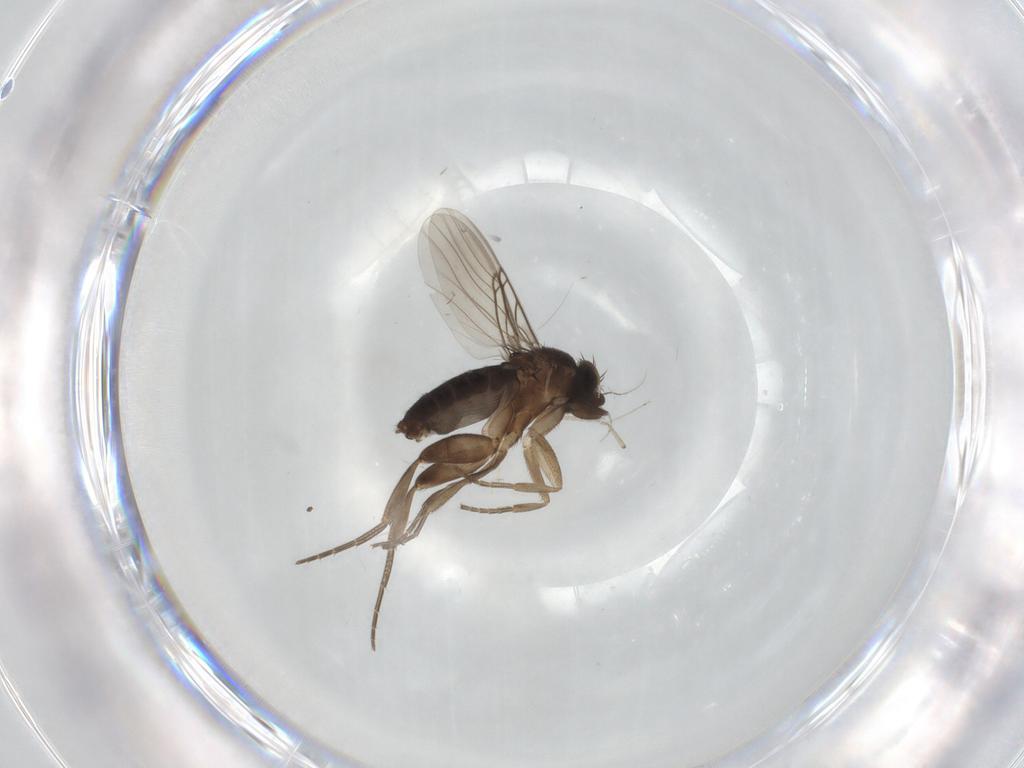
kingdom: Animalia
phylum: Arthropoda
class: Insecta
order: Diptera
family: Phoridae
